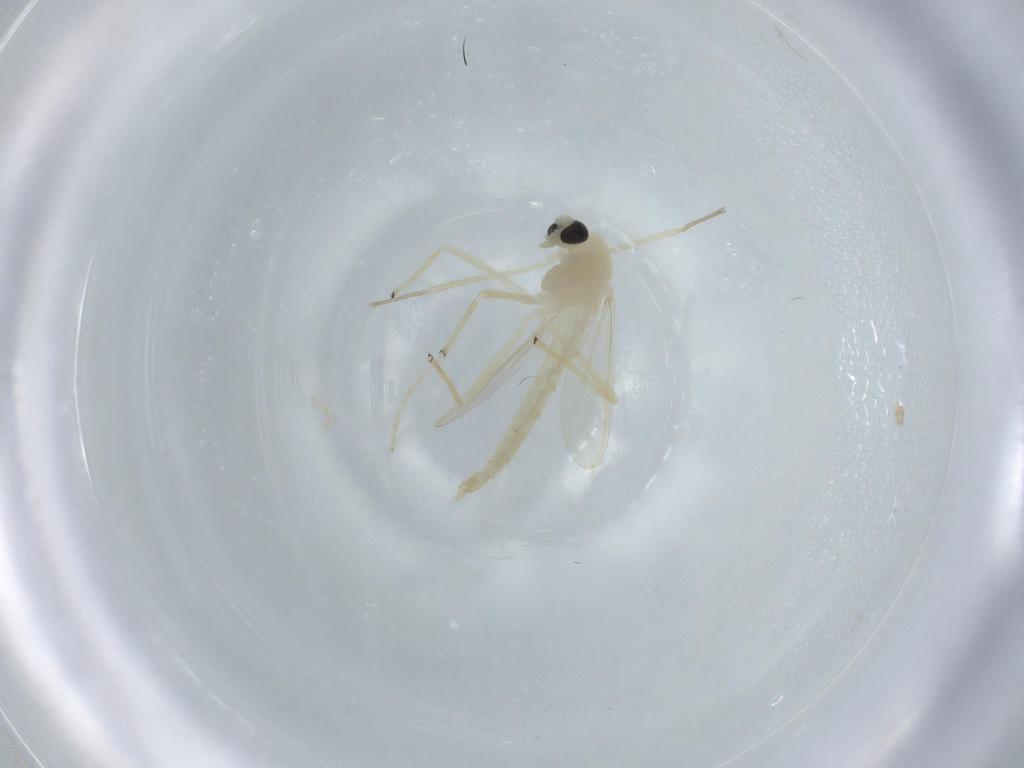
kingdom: Animalia
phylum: Arthropoda
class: Insecta
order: Diptera
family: Chironomidae
